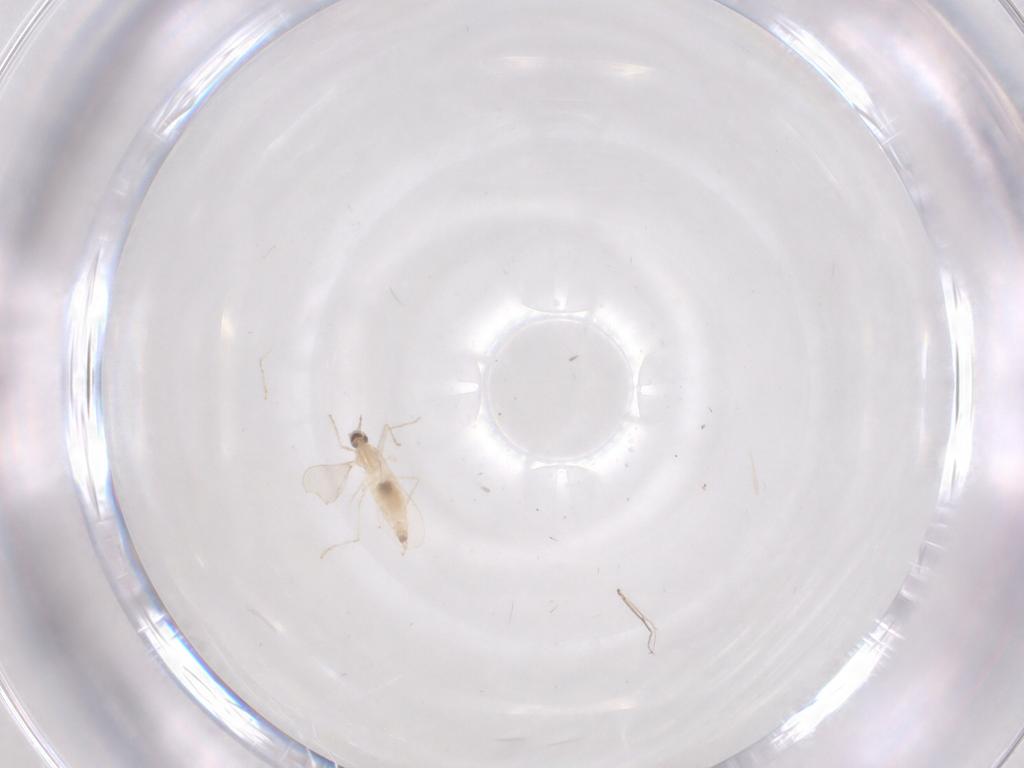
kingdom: Animalia
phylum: Arthropoda
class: Insecta
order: Diptera
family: Cecidomyiidae
